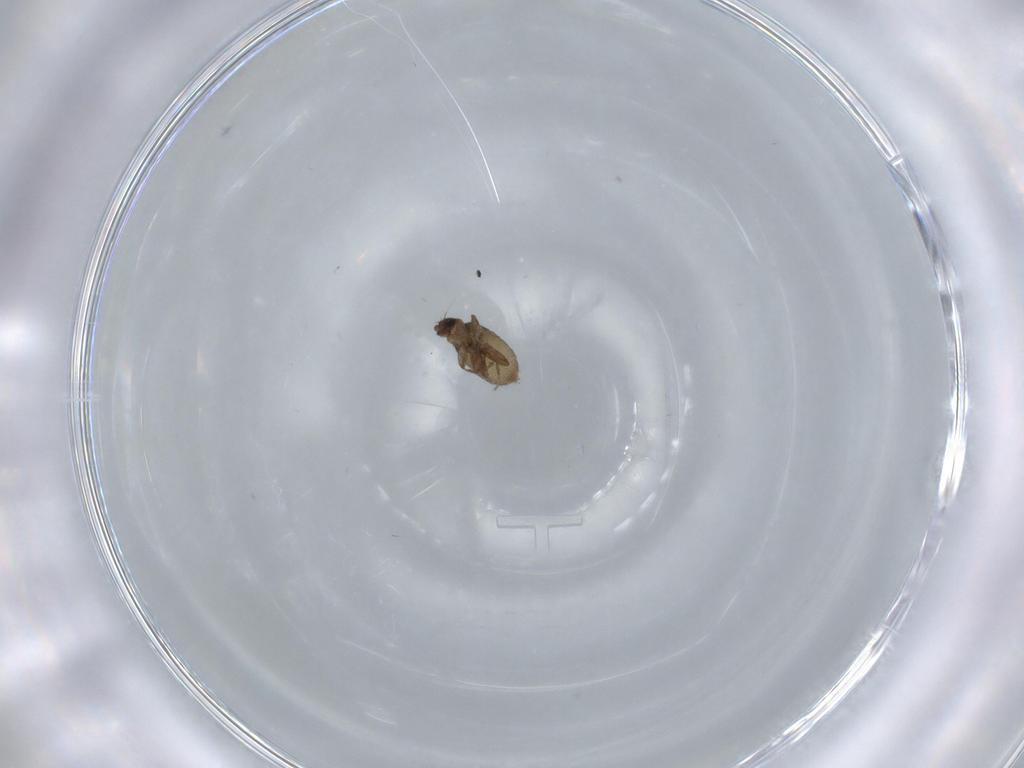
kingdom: Animalia
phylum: Arthropoda
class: Insecta
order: Diptera
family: Phoridae
